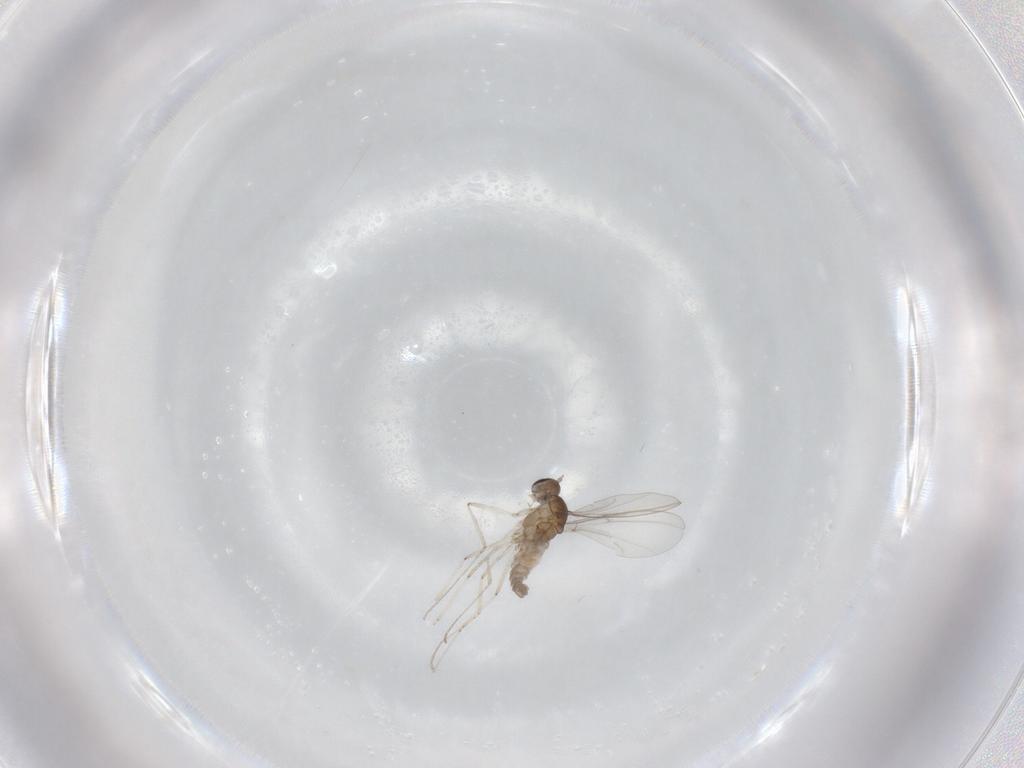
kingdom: Animalia
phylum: Arthropoda
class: Insecta
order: Diptera
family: Cecidomyiidae
